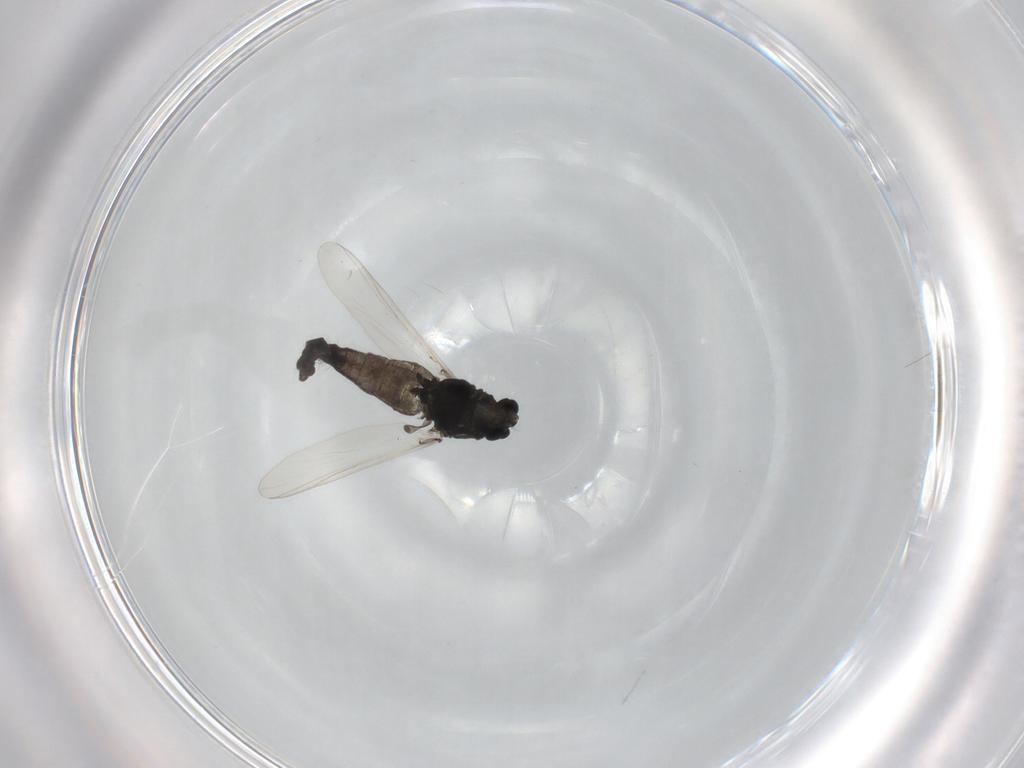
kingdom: Animalia
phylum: Arthropoda
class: Insecta
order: Diptera
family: Chironomidae
